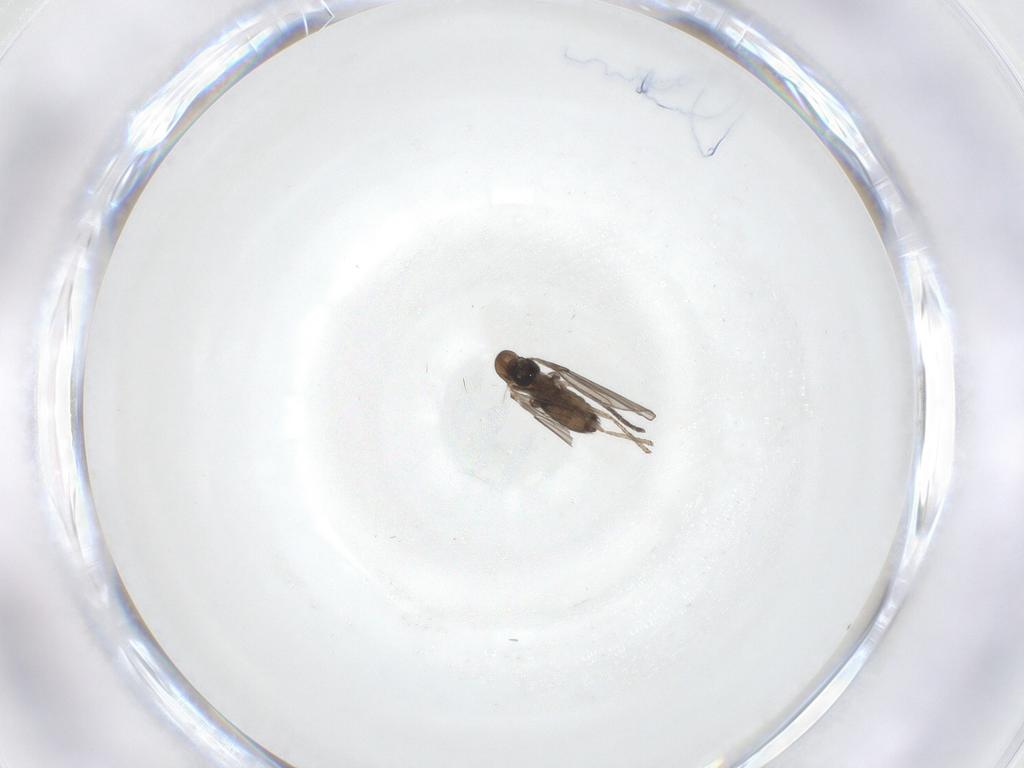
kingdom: Animalia
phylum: Arthropoda
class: Insecta
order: Diptera
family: Psychodidae
